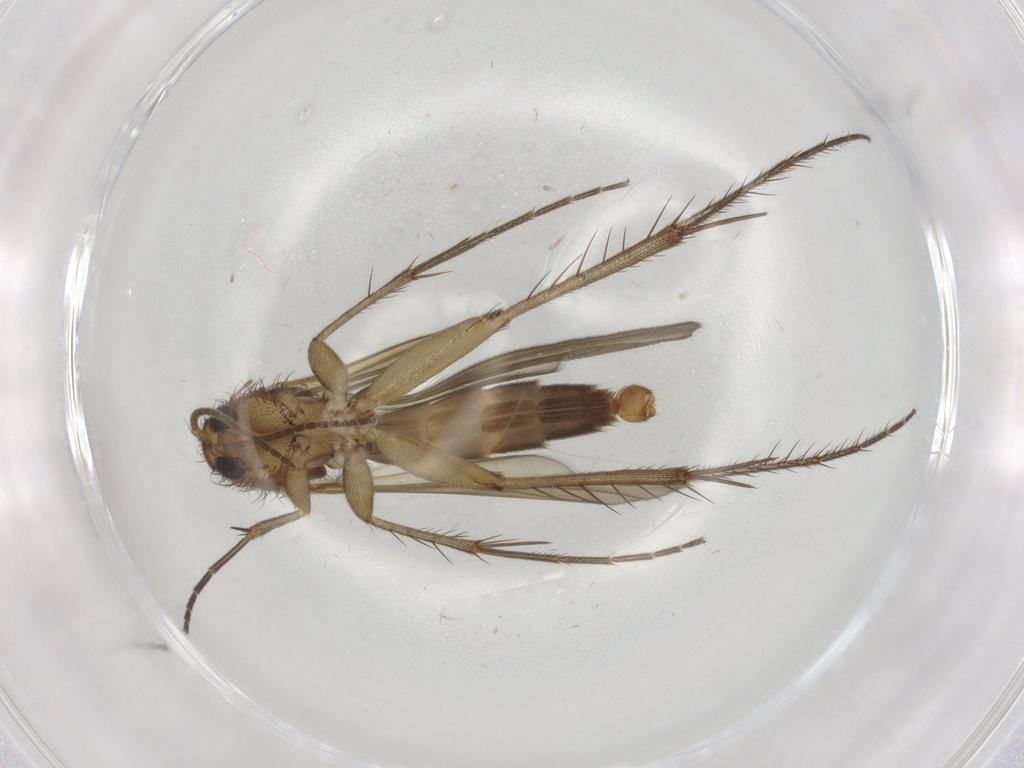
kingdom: Animalia
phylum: Arthropoda
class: Insecta
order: Diptera
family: Mycetophilidae
